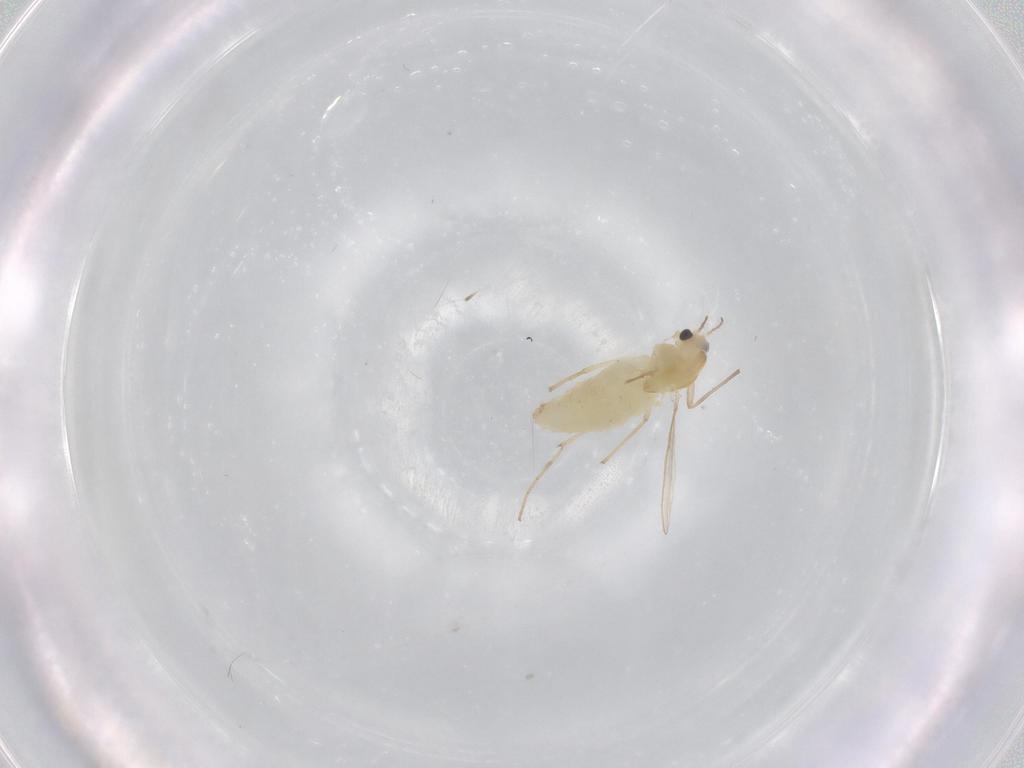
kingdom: Animalia
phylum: Arthropoda
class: Insecta
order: Diptera
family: Chironomidae
